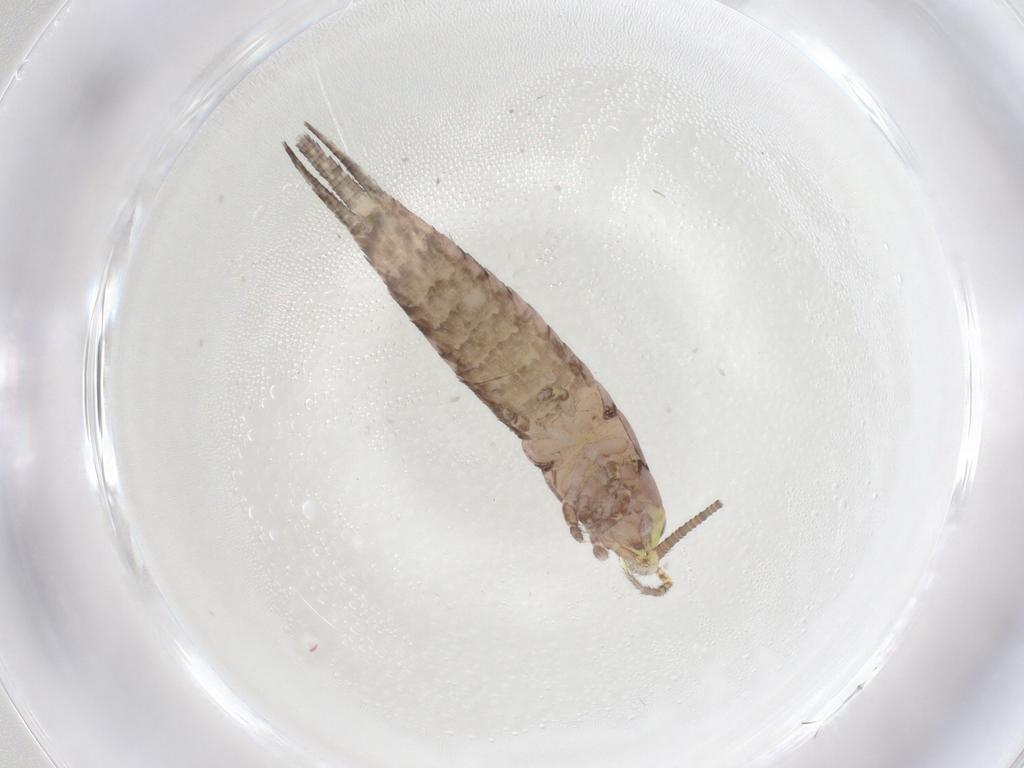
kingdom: Animalia
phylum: Arthropoda
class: Insecta
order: Archaeognatha
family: Machilidae
